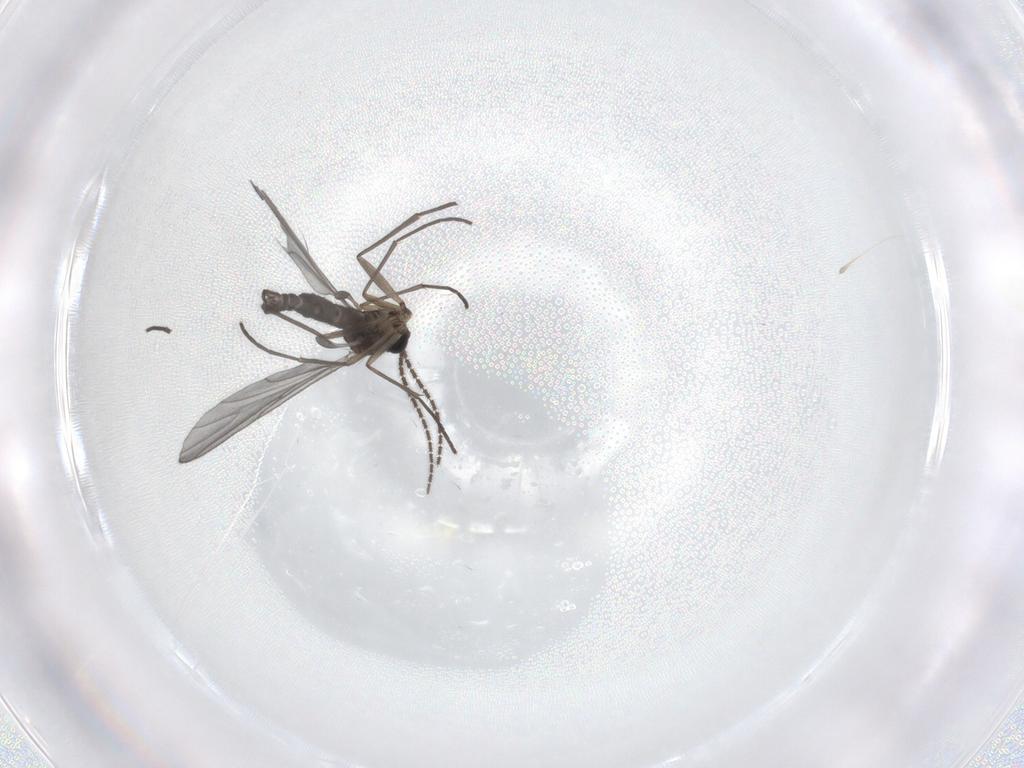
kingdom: Animalia
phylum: Arthropoda
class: Insecta
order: Diptera
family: Sciaridae
